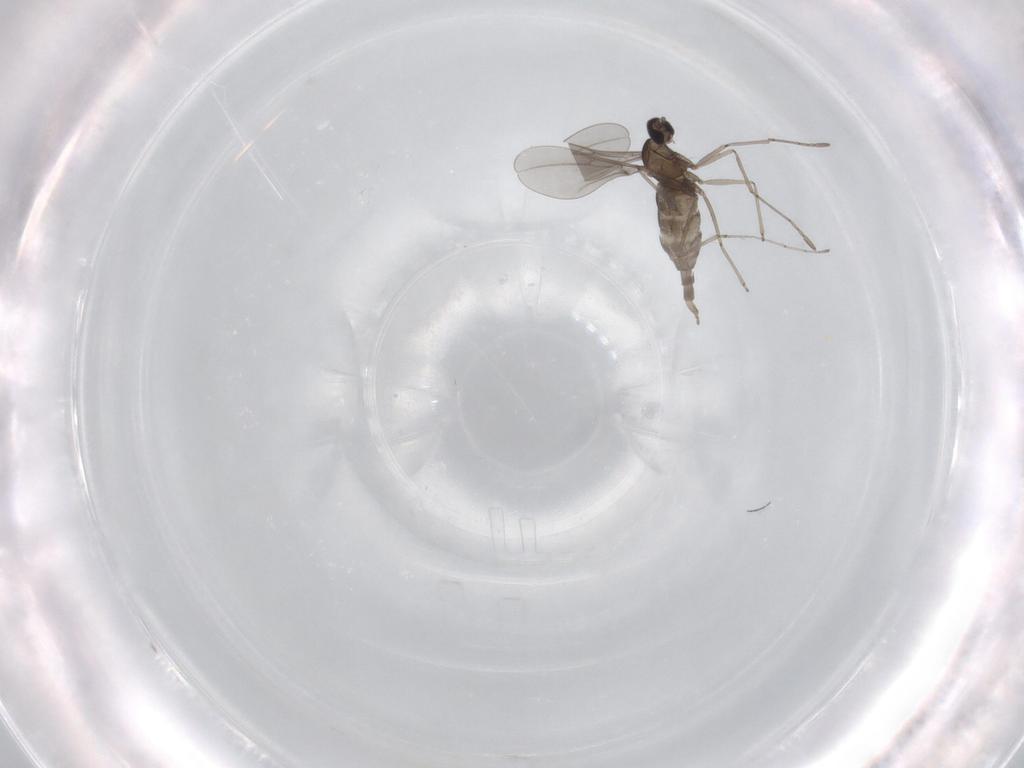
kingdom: Animalia
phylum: Arthropoda
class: Insecta
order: Diptera
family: Cecidomyiidae
